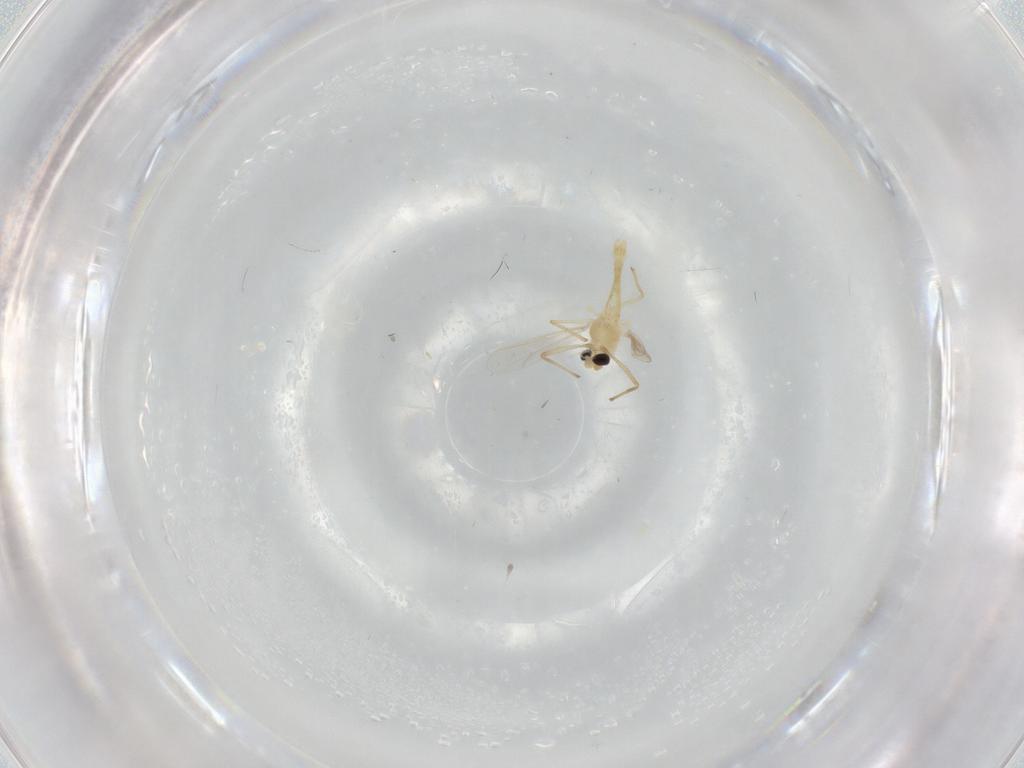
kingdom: Animalia
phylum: Arthropoda
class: Insecta
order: Diptera
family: Chironomidae
